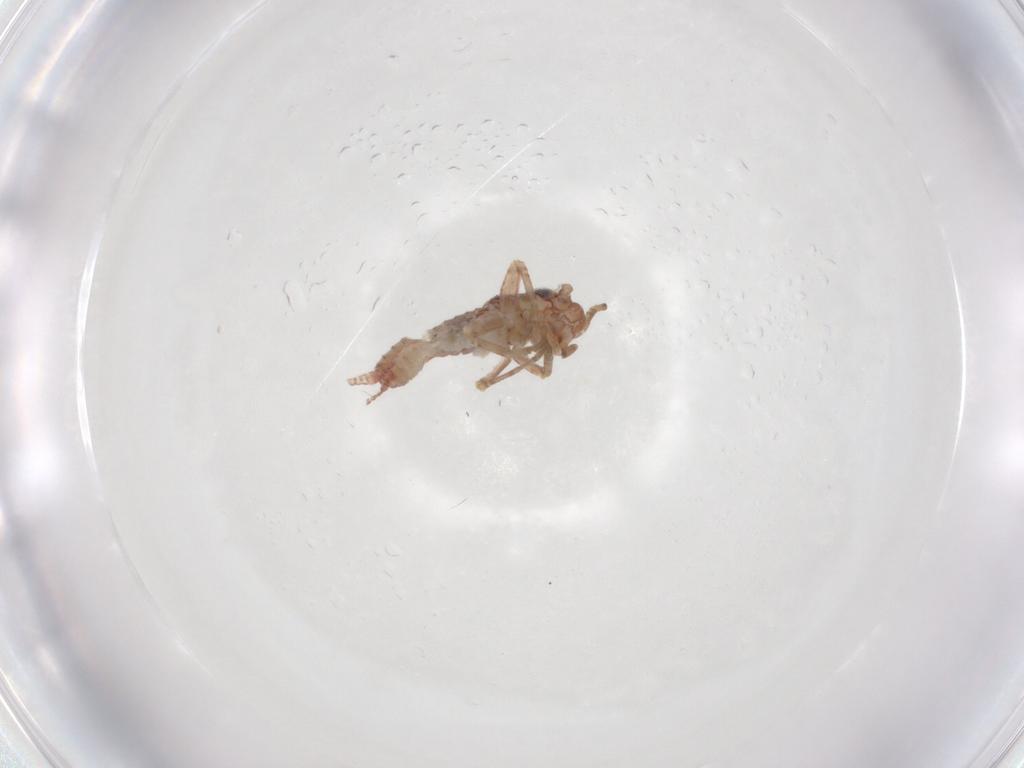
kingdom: Animalia
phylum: Arthropoda
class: Insecta
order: Orthoptera
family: Mogoplistidae
